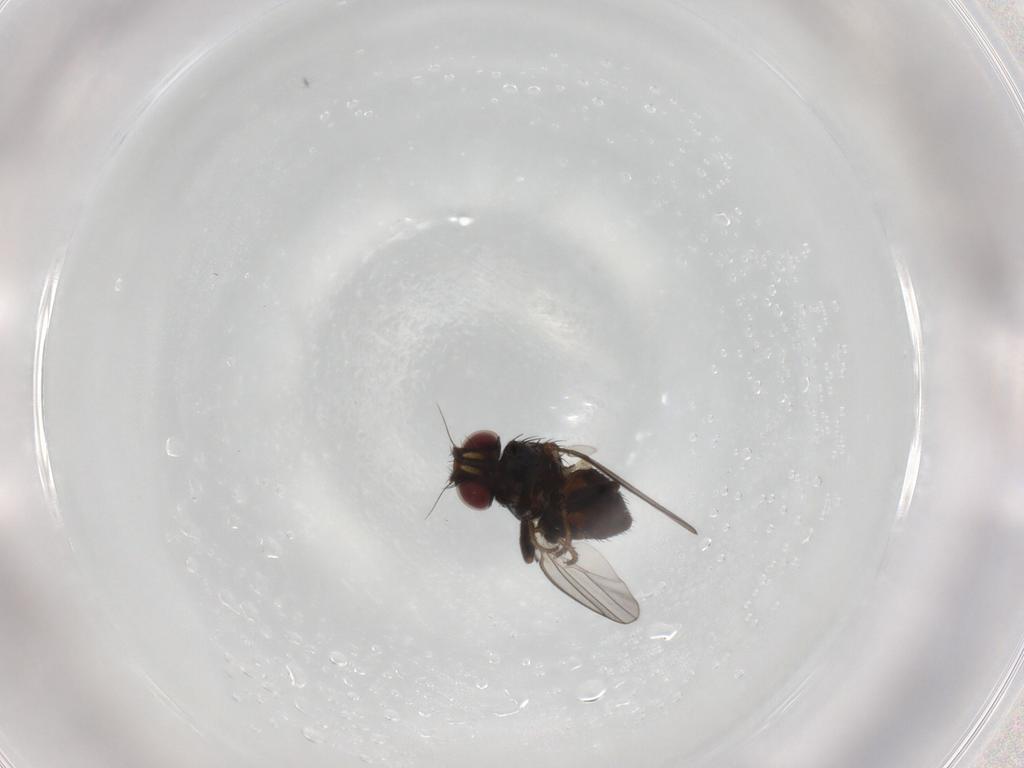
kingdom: Animalia
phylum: Arthropoda
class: Insecta
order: Diptera
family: Milichiidae
